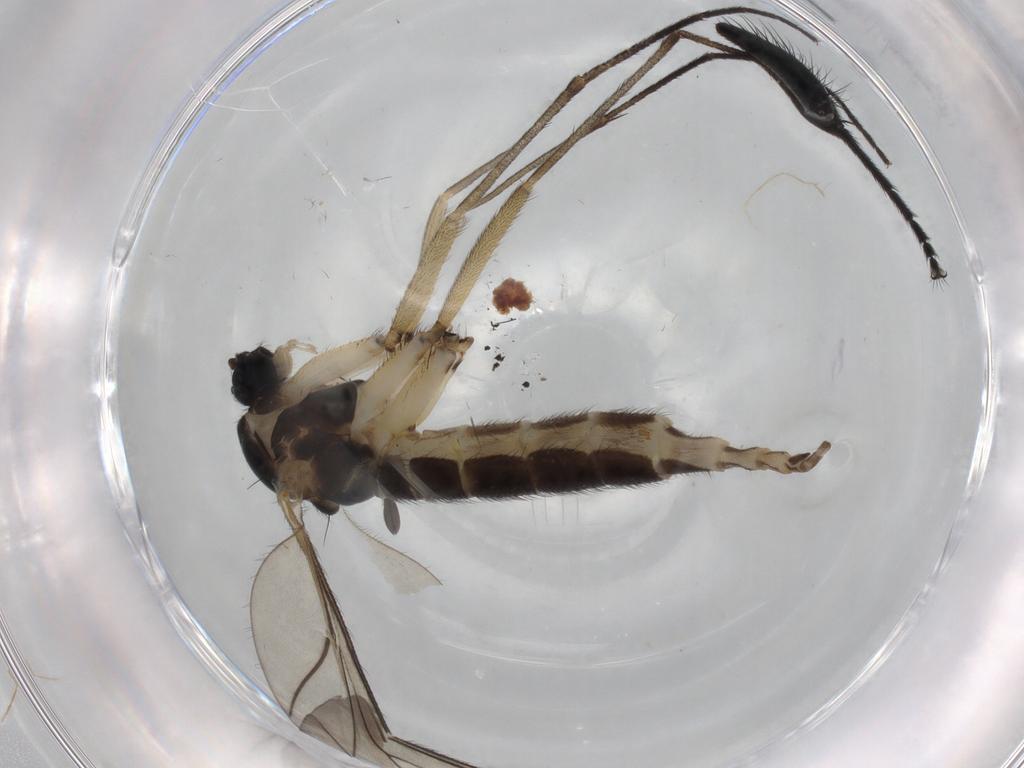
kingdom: Animalia
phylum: Arthropoda
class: Insecta
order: Diptera
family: Sciaridae
